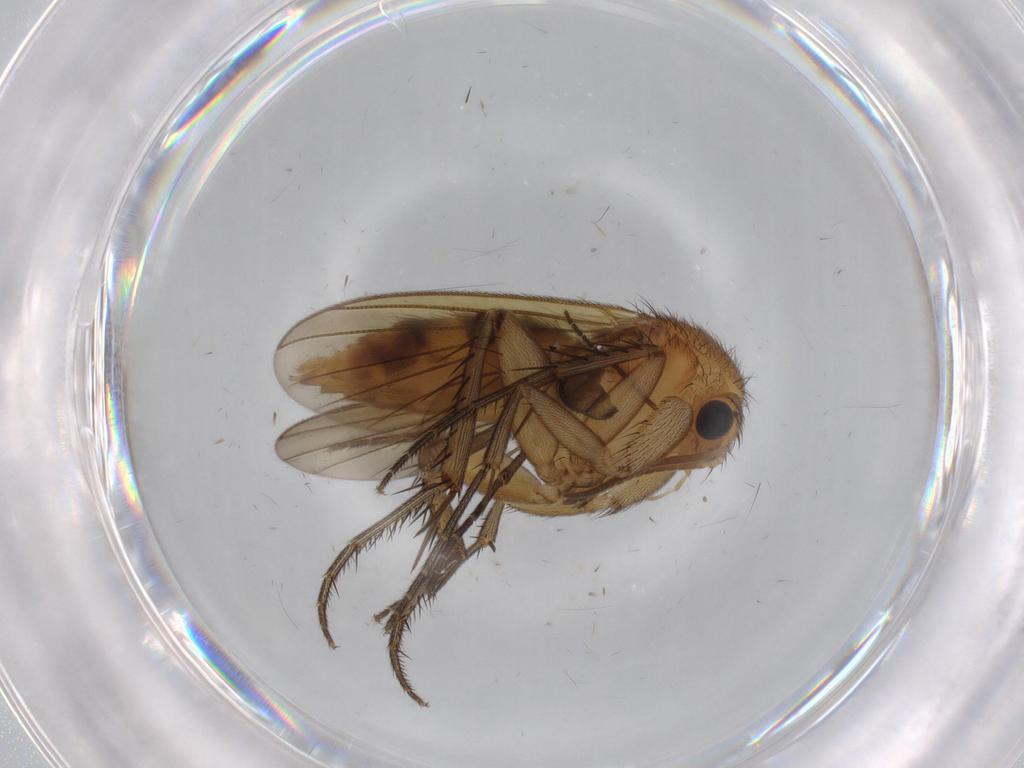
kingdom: Animalia
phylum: Arthropoda
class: Insecta
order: Diptera
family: Mycetophilidae
